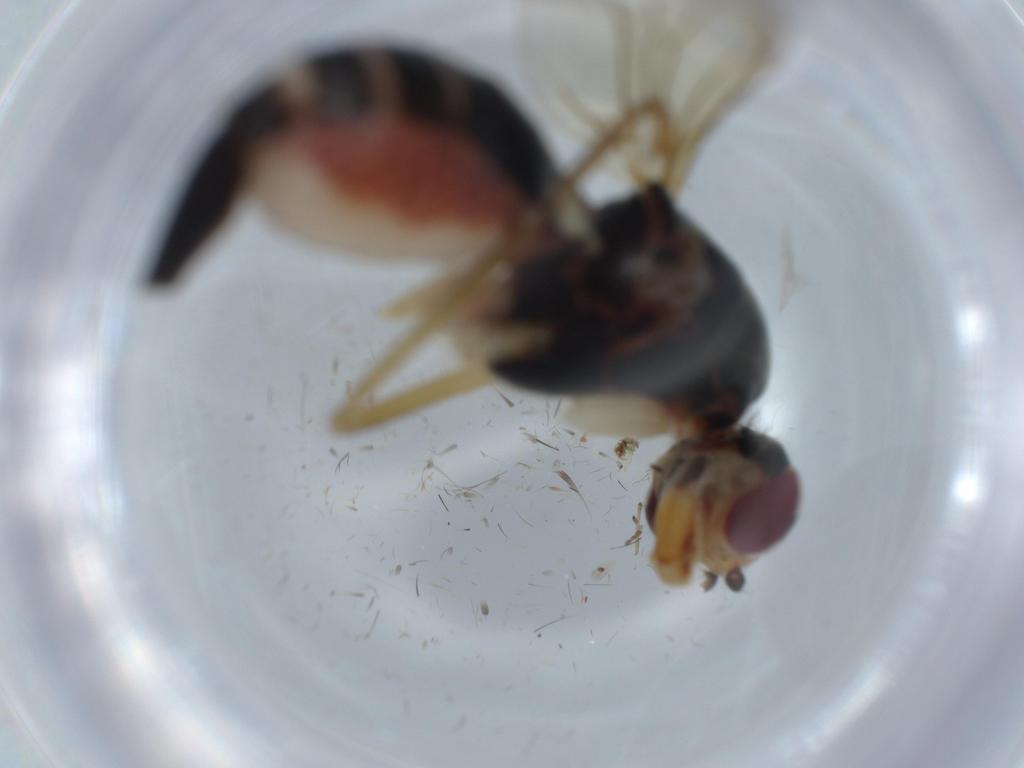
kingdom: Animalia
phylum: Arthropoda
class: Insecta
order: Diptera
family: Micropezidae
